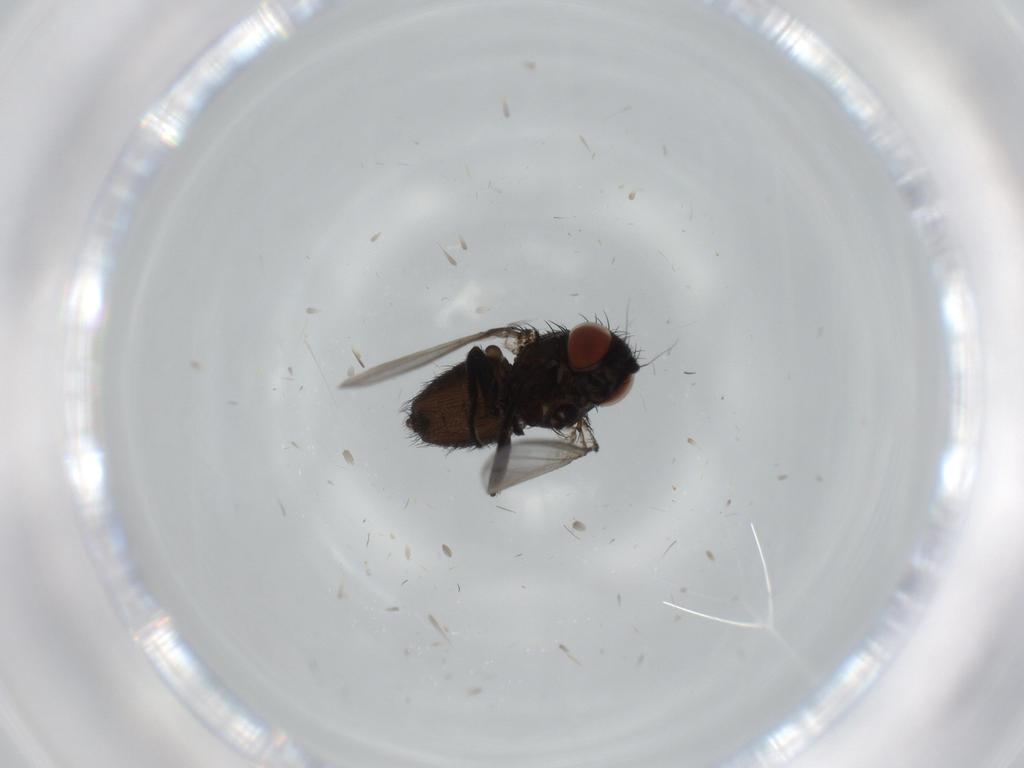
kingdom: Animalia
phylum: Arthropoda
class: Insecta
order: Diptera
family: Milichiidae
